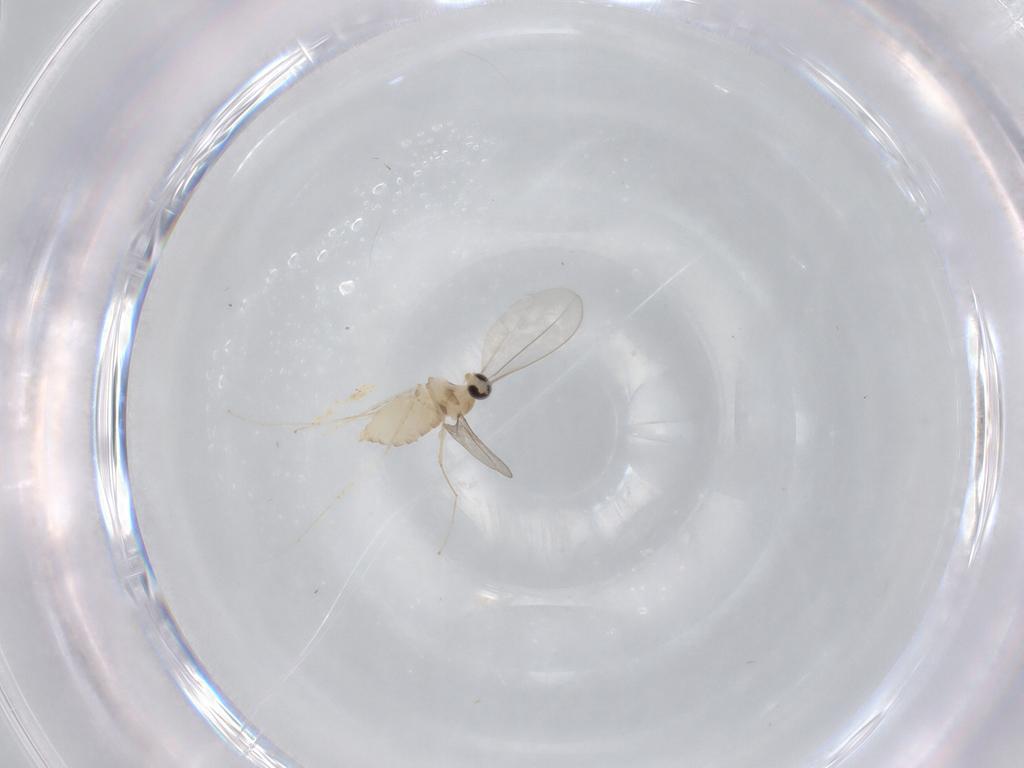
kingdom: Animalia
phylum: Arthropoda
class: Insecta
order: Diptera
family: Cecidomyiidae
